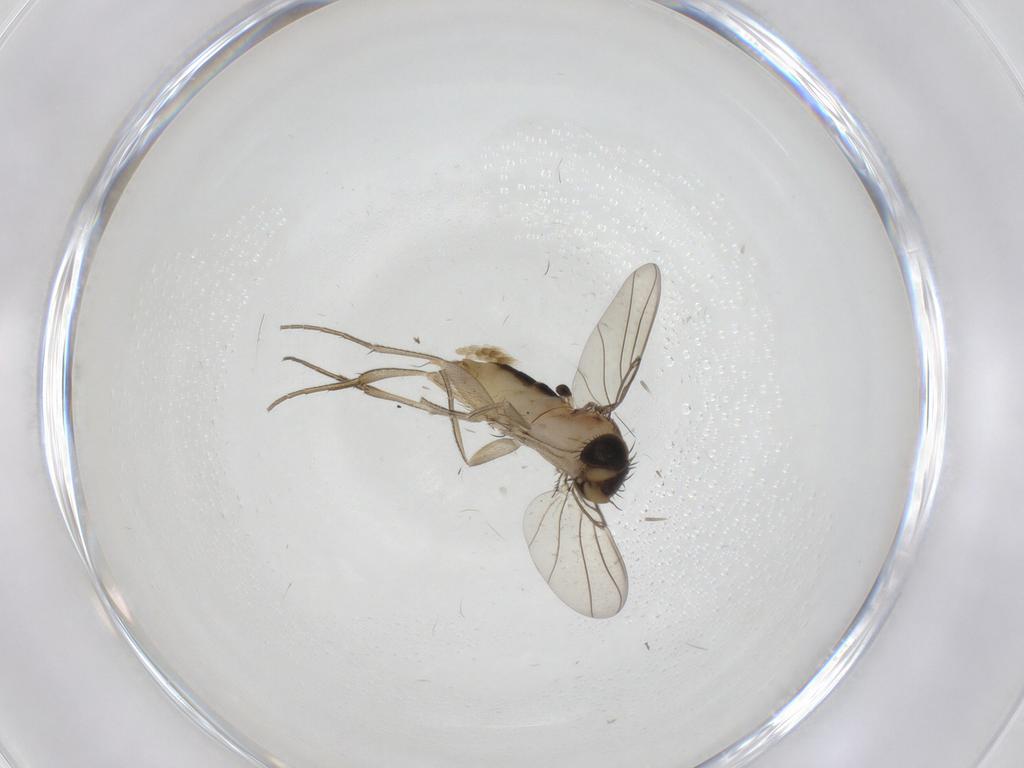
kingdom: Animalia
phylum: Arthropoda
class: Insecta
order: Diptera
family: Phoridae
